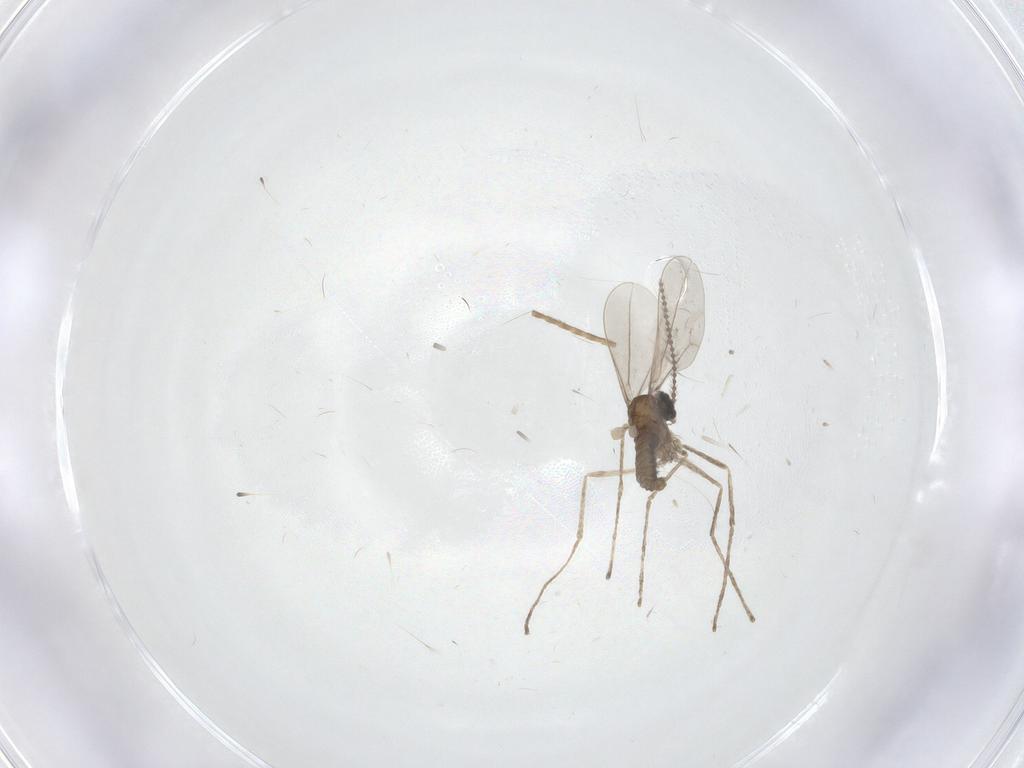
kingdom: Animalia
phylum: Arthropoda
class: Insecta
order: Diptera
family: Cecidomyiidae
